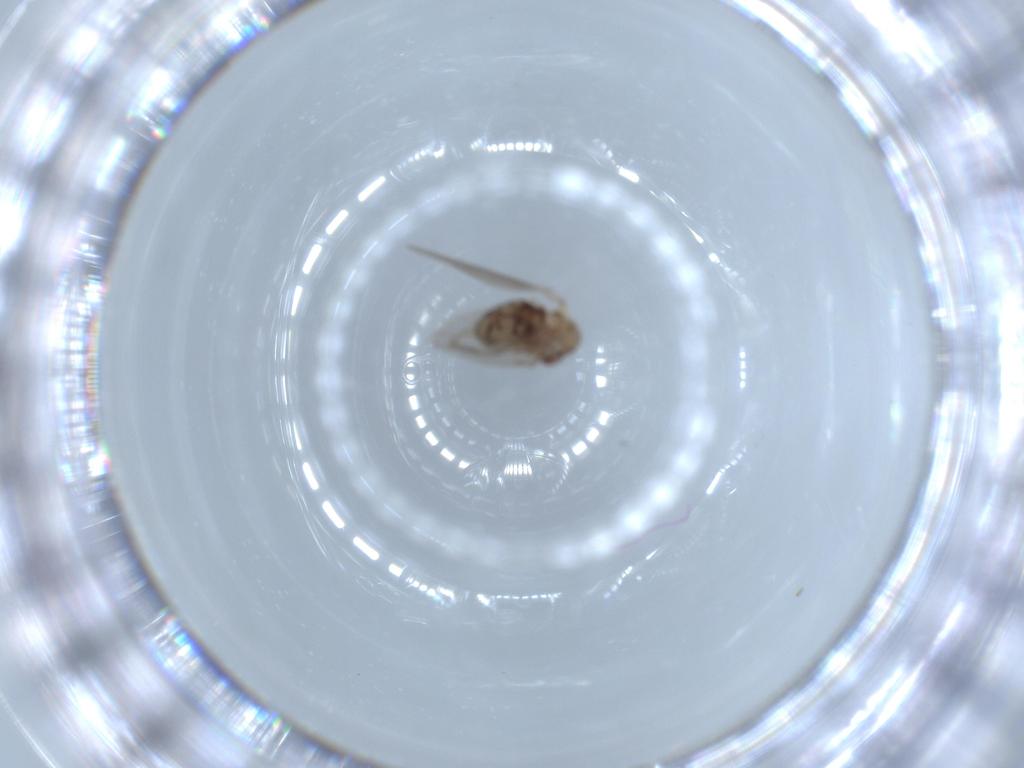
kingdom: Animalia
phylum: Arthropoda
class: Insecta
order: Diptera
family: Psychodidae
